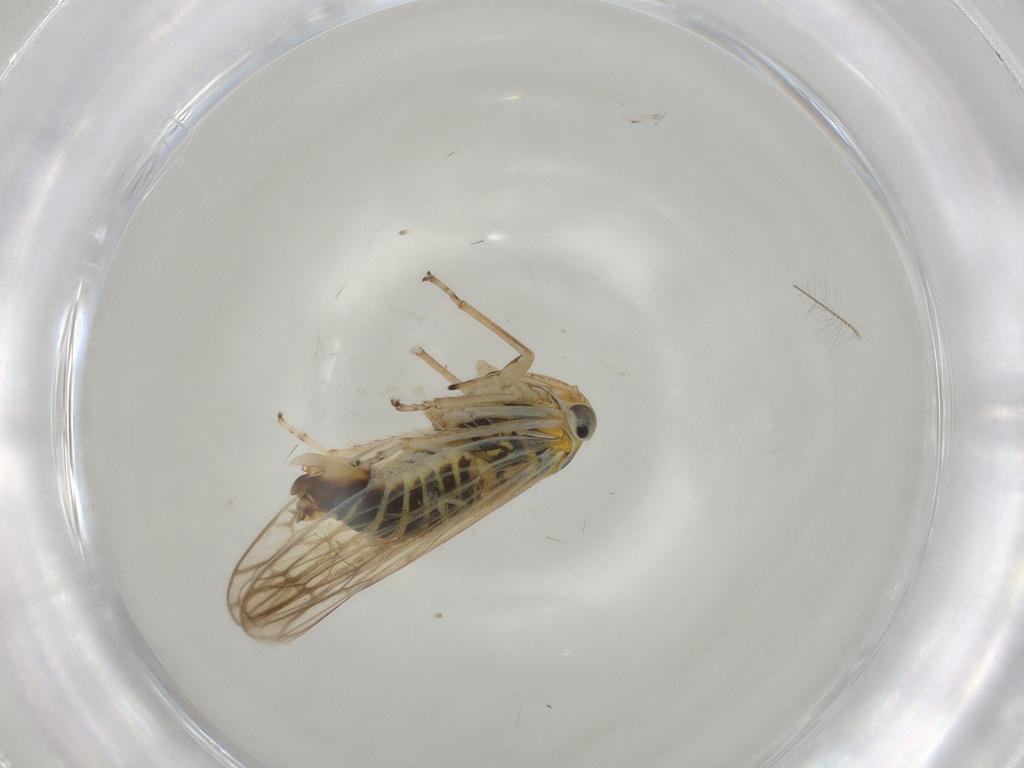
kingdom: Animalia
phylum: Arthropoda
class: Insecta
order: Hemiptera
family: Cicadellidae
